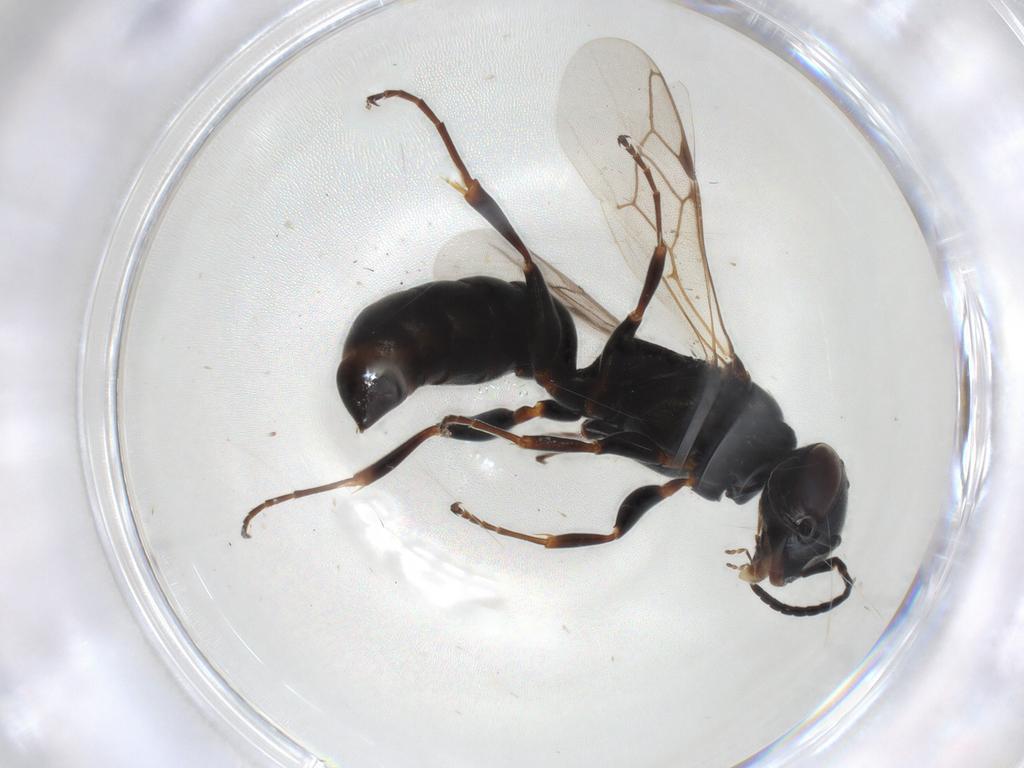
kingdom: Animalia
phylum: Arthropoda
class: Insecta
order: Hymenoptera
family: Crabronidae
